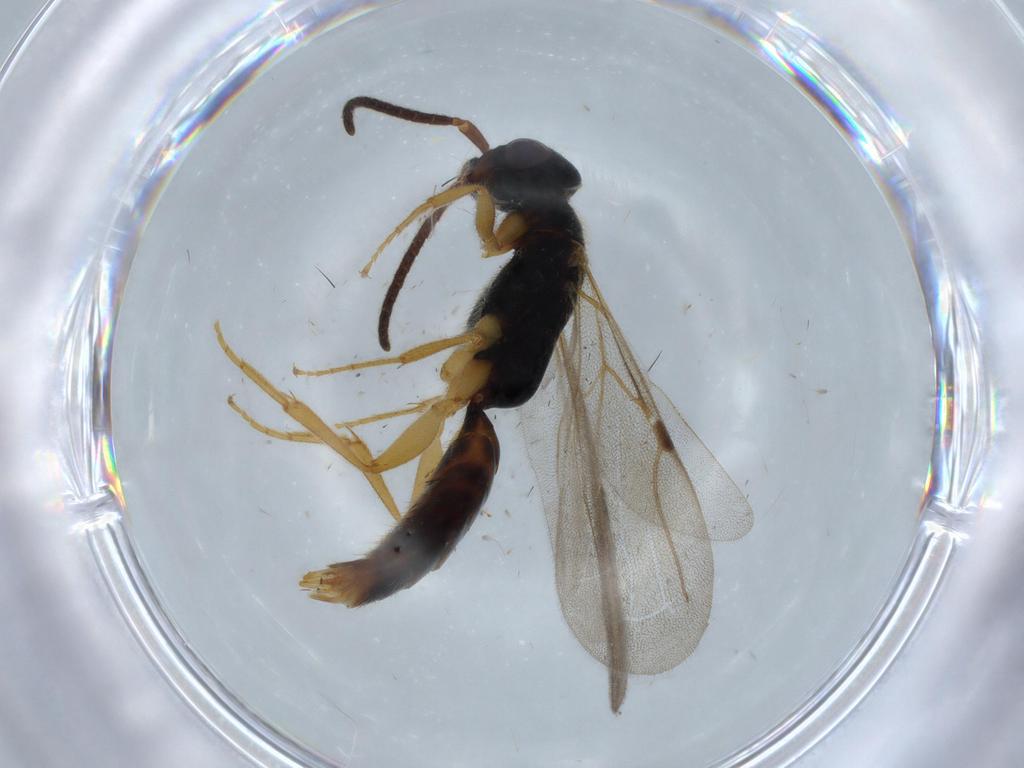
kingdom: Animalia
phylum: Arthropoda
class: Insecta
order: Hymenoptera
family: Bethylidae
